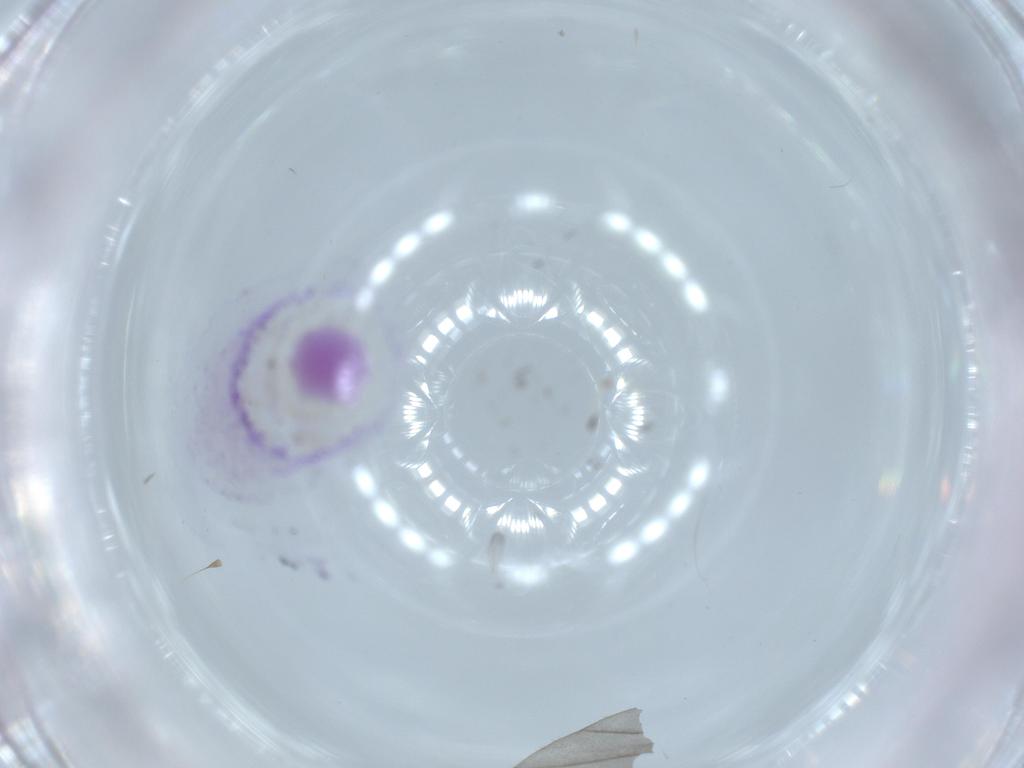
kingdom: Animalia
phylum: Arthropoda
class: Insecta
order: Diptera
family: Cecidomyiidae
